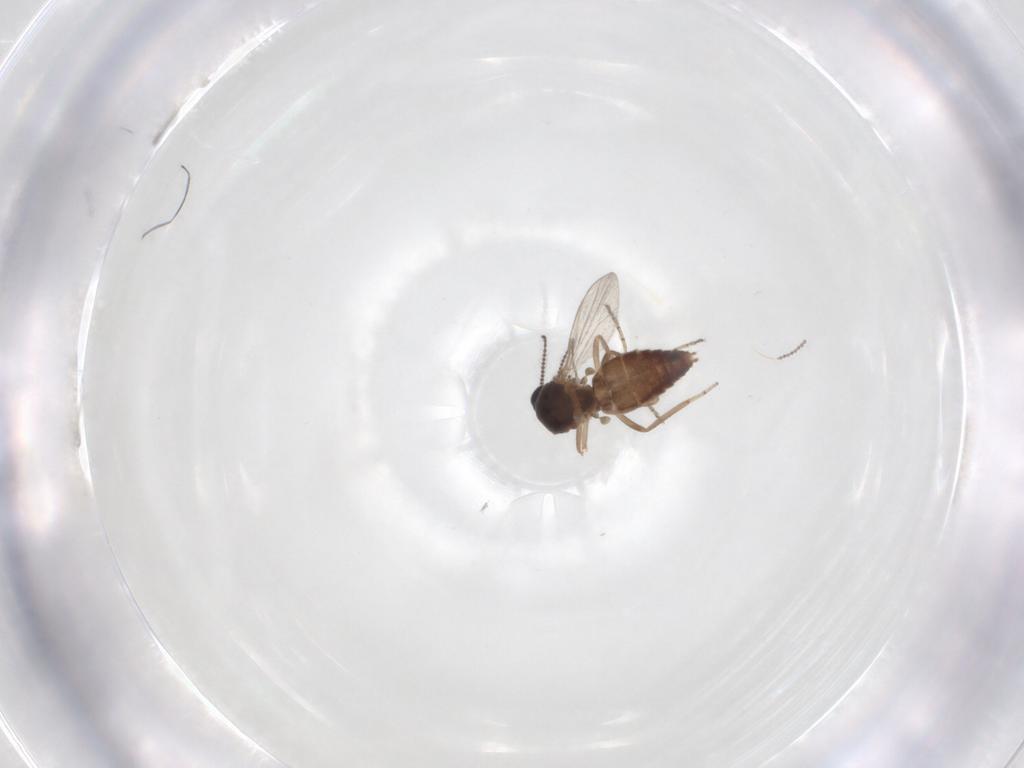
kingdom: Animalia
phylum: Arthropoda
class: Insecta
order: Diptera
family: Ceratopogonidae
